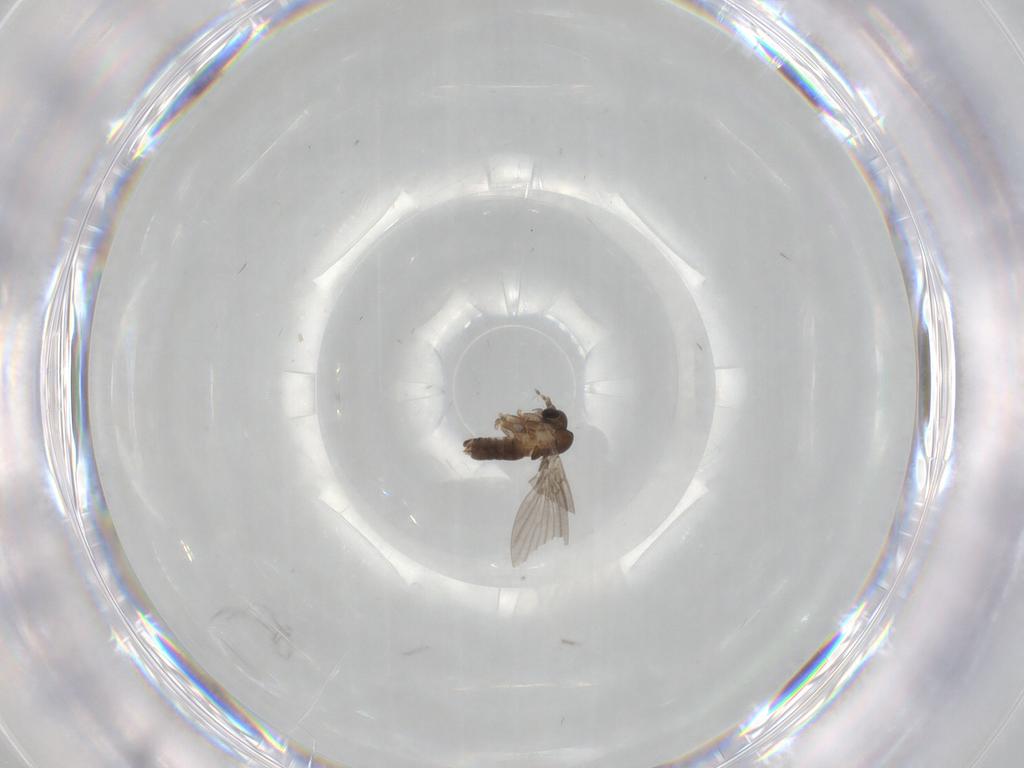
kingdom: Animalia
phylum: Arthropoda
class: Insecta
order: Diptera
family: Psychodidae
